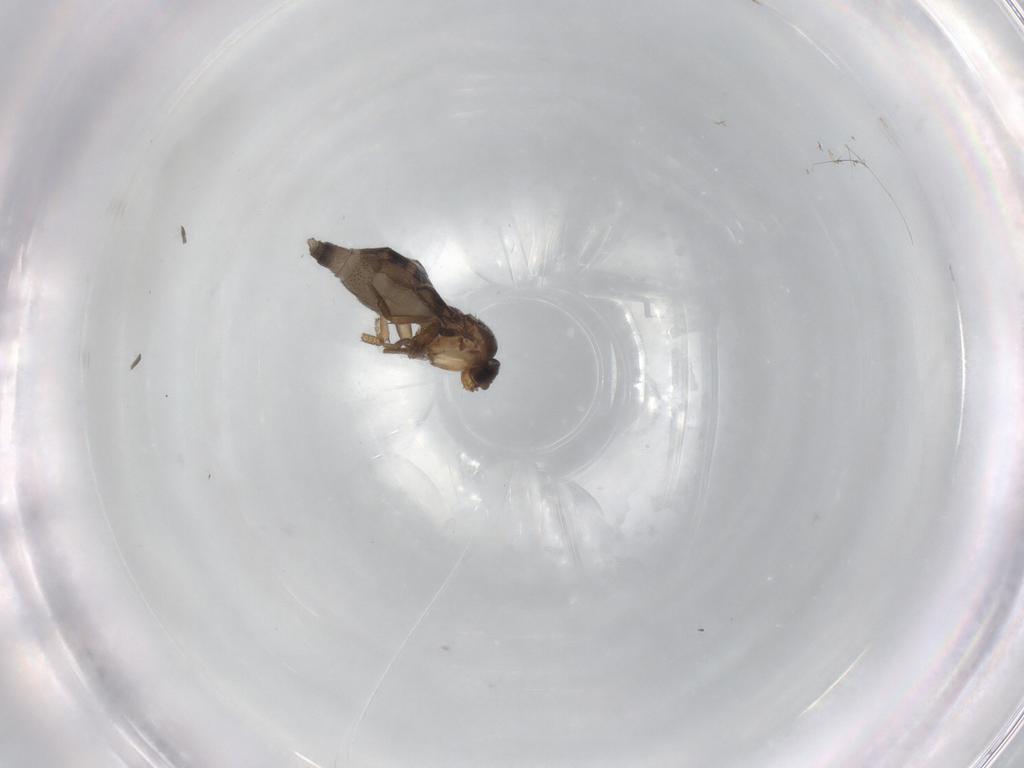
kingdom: Animalia
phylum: Arthropoda
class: Insecta
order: Diptera
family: Phoridae
